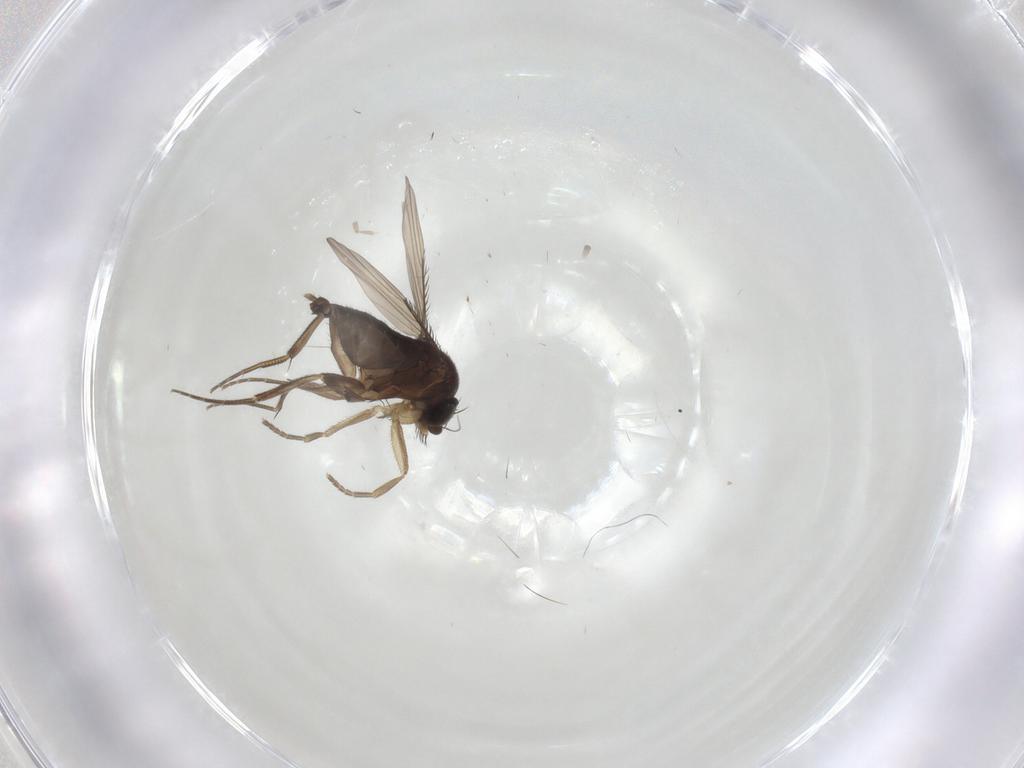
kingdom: Animalia
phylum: Arthropoda
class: Insecta
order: Diptera
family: Phoridae
